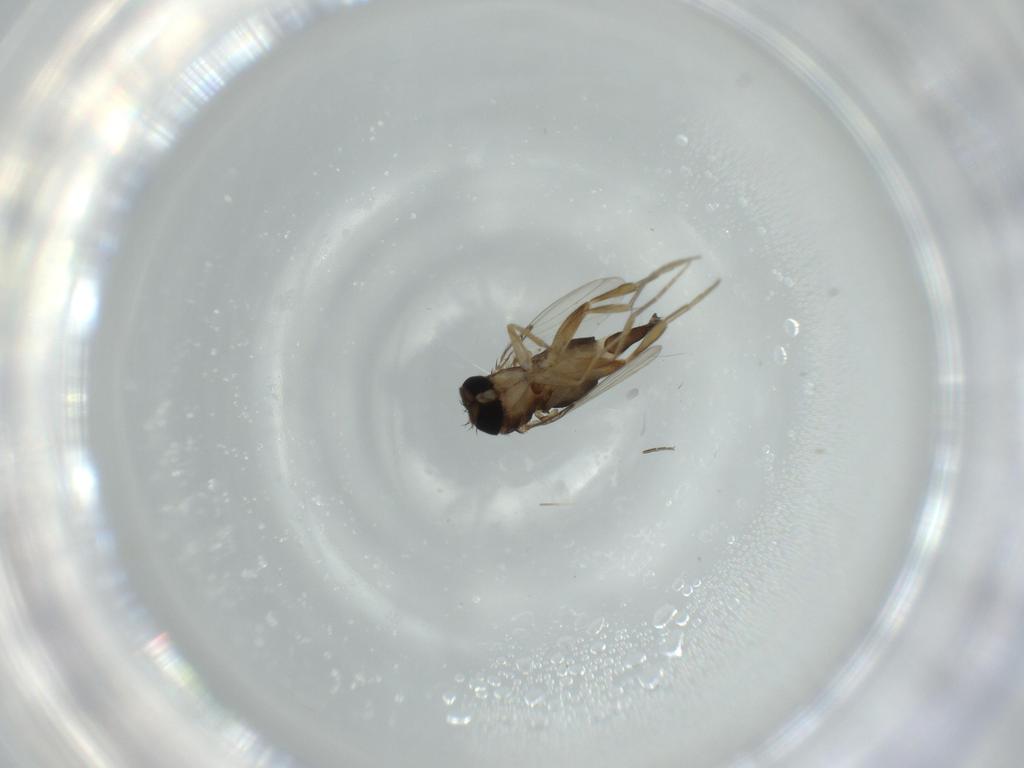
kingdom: Animalia
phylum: Arthropoda
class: Insecta
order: Diptera
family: Phoridae
